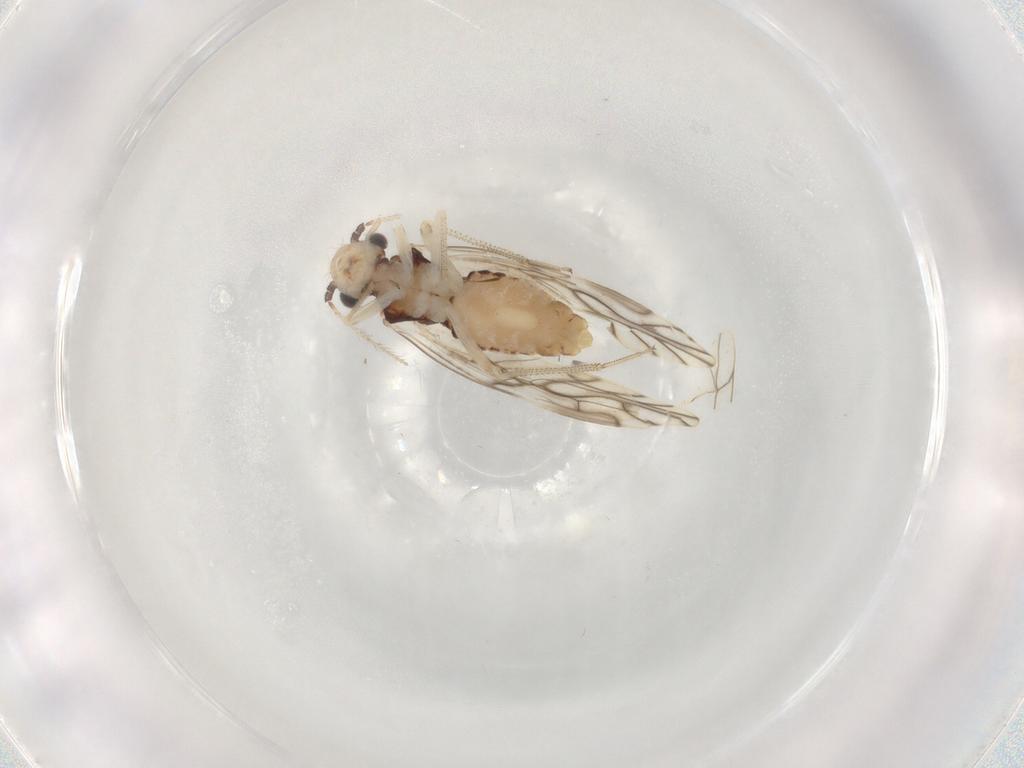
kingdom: Animalia
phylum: Arthropoda
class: Insecta
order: Psocodea
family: Caeciliusidae
